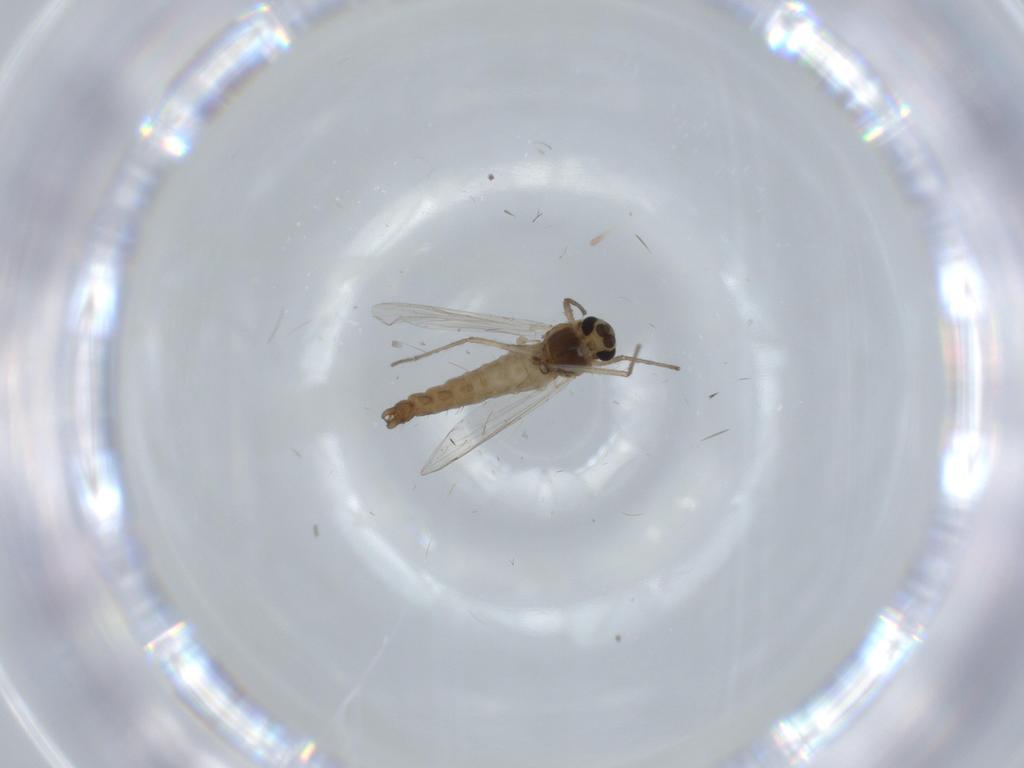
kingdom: Animalia
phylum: Arthropoda
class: Insecta
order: Diptera
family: Chironomidae
